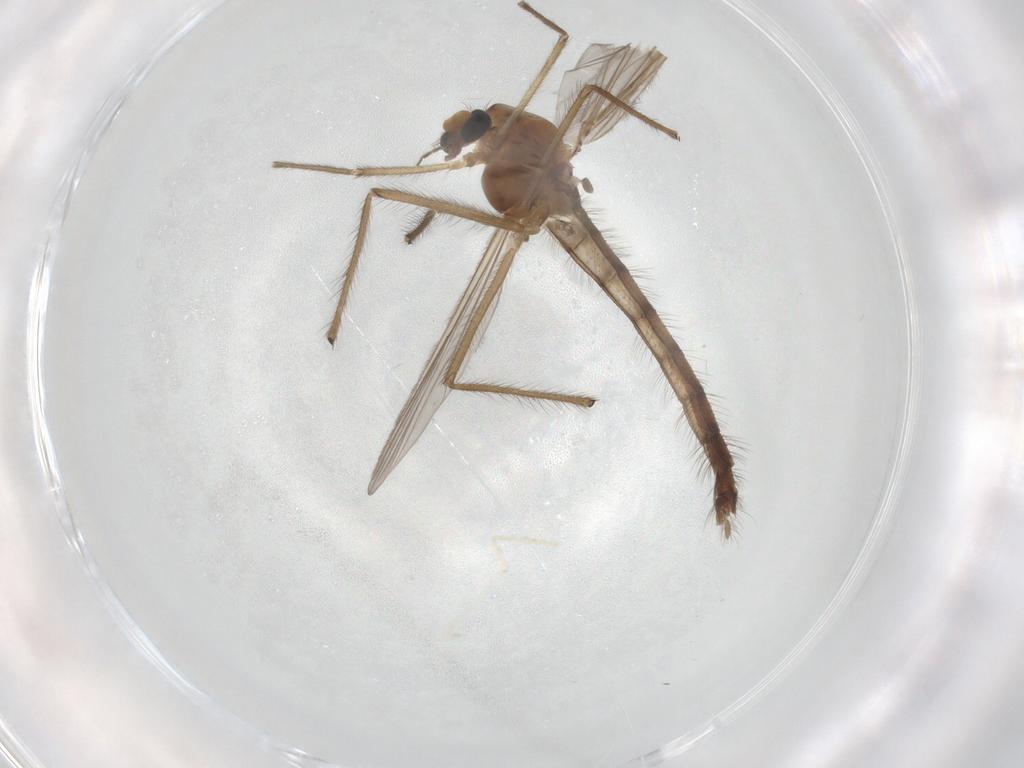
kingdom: Animalia
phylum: Arthropoda
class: Insecta
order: Diptera
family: Chironomidae
